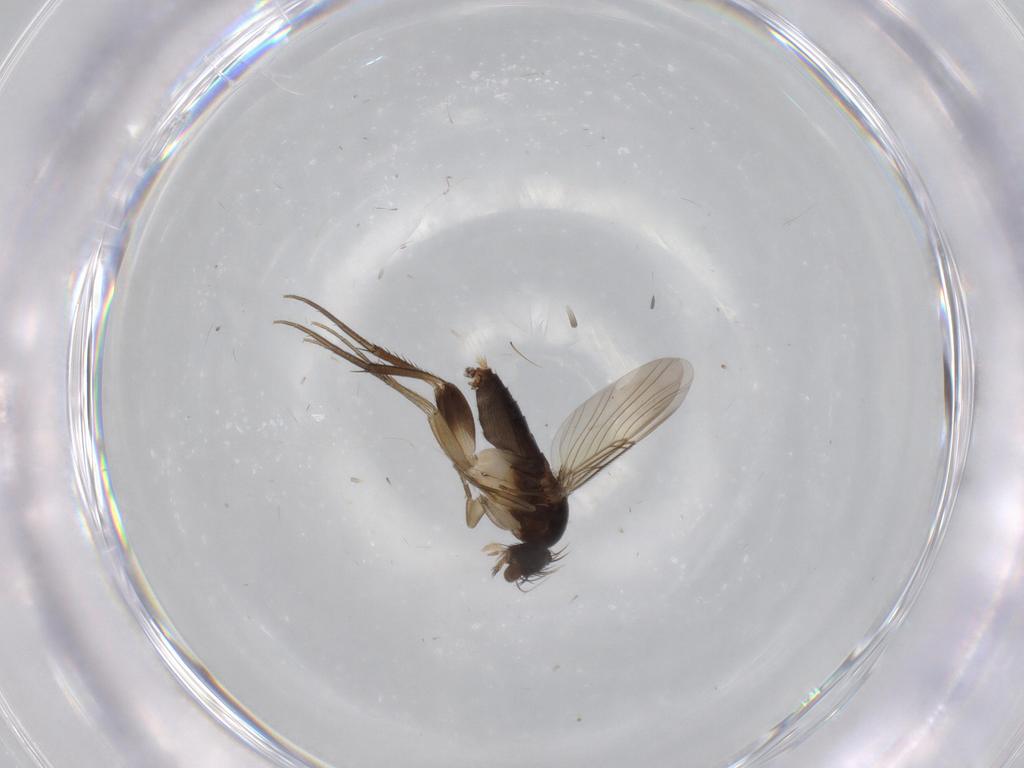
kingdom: Animalia
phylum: Arthropoda
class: Insecta
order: Diptera
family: Phoridae
